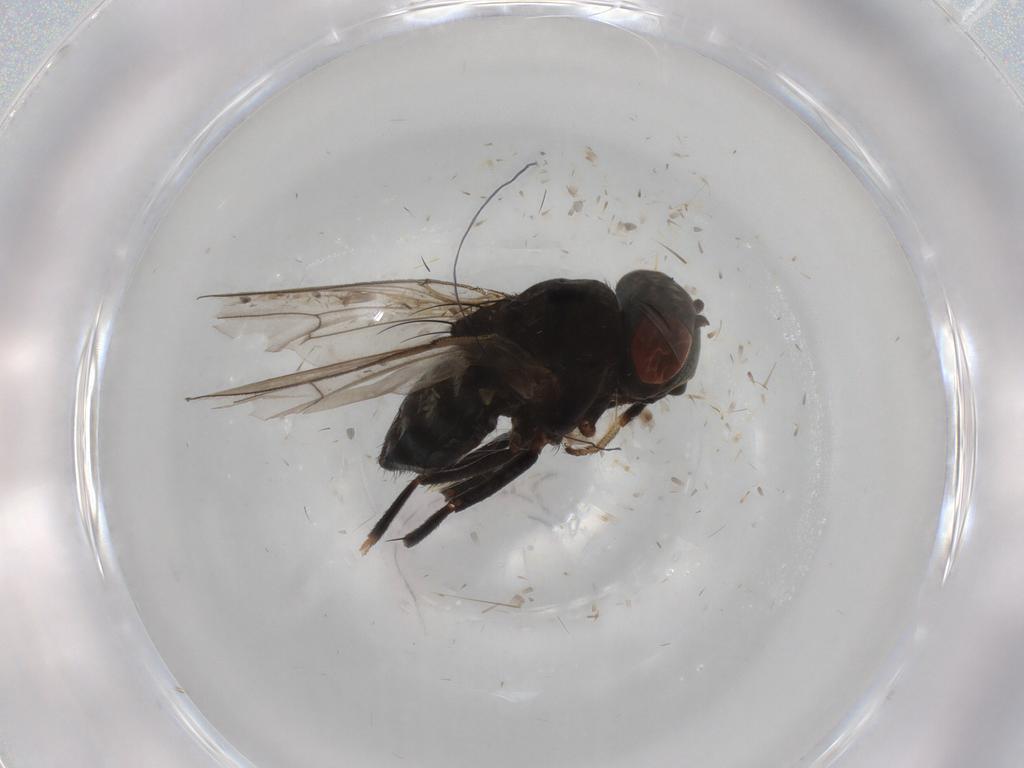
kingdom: Animalia
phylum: Arthropoda
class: Insecta
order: Diptera
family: Ephydridae
